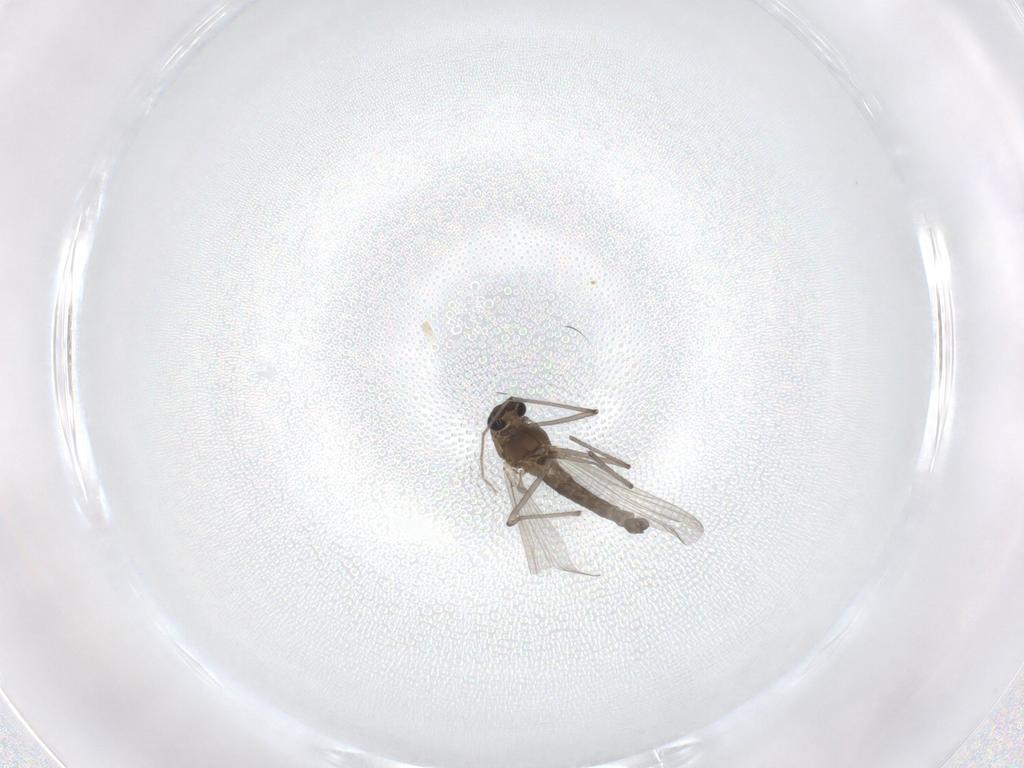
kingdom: Animalia
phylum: Arthropoda
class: Insecta
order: Diptera
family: Chironomidae
